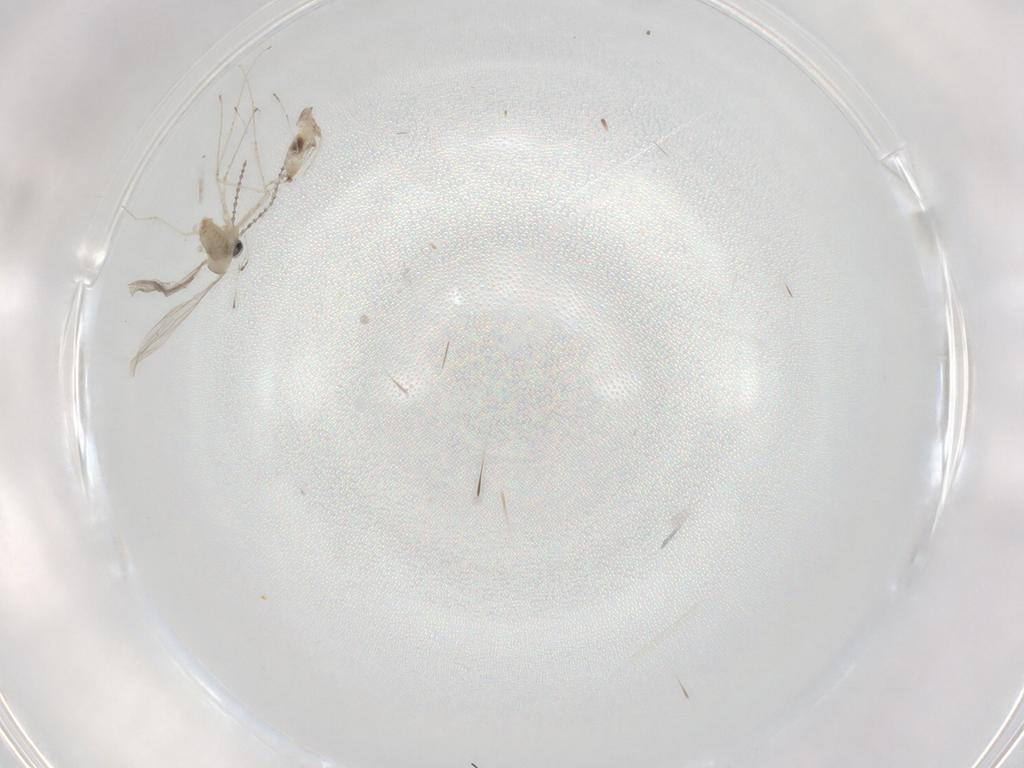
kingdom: Animalia
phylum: Arthropoda
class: Insecta
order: Diptera
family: Cecidomyiidae
